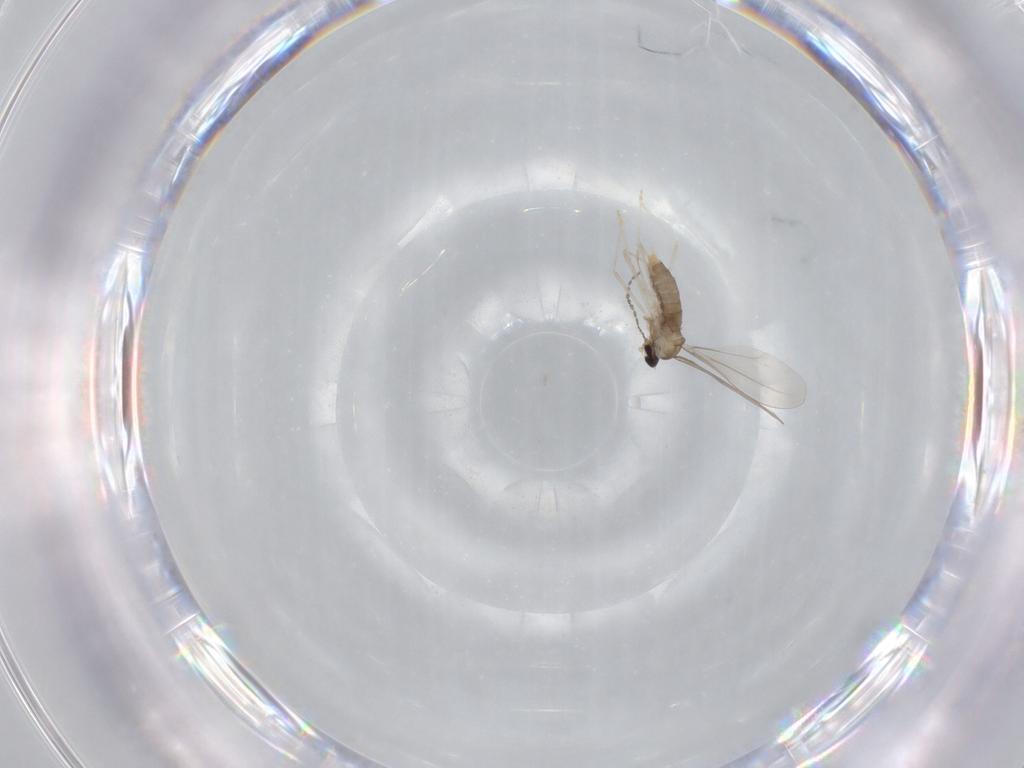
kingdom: Animalia
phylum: Arthropoda
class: Insecta
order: Diptera
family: Cecidomyiidae
